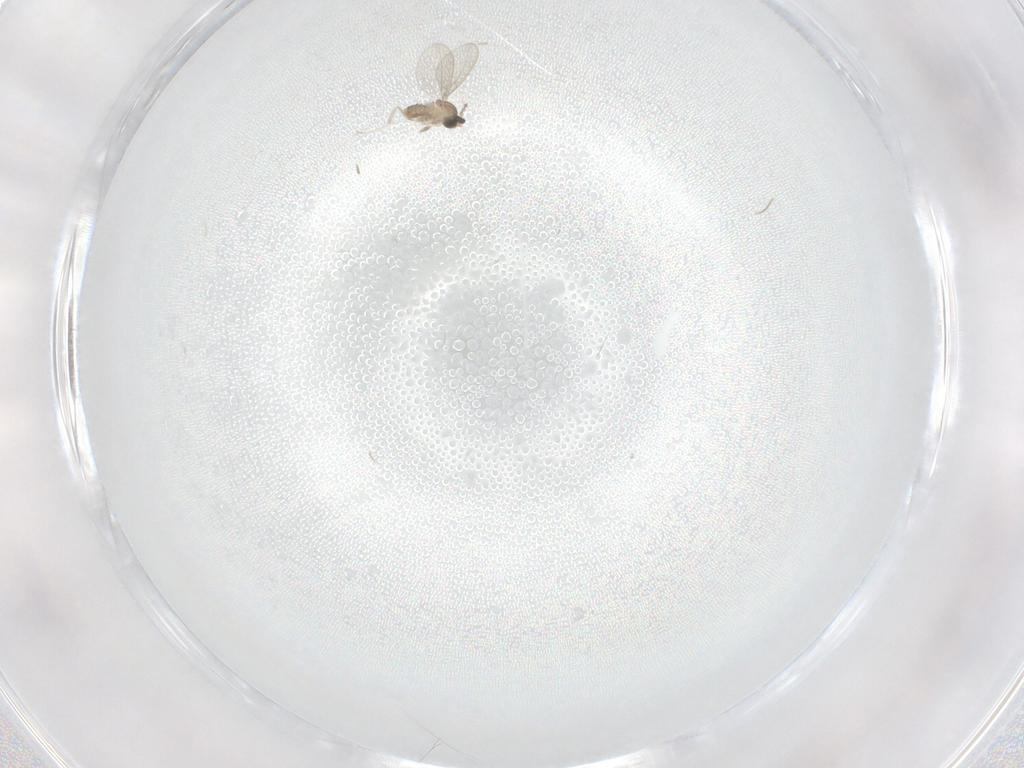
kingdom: Animalia
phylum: Arthropoda
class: Insecta
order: Diptera
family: Cecidomyiidae
